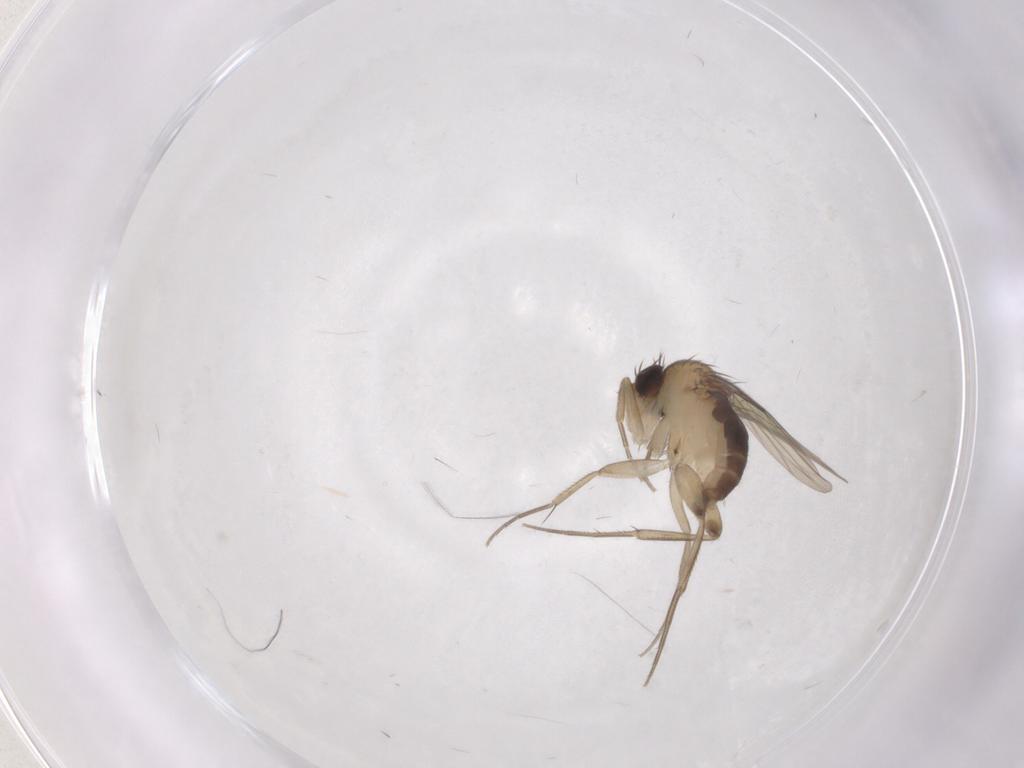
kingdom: Animalia
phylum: Arthropoda
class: Insecta
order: Diptera
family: Phoridae
